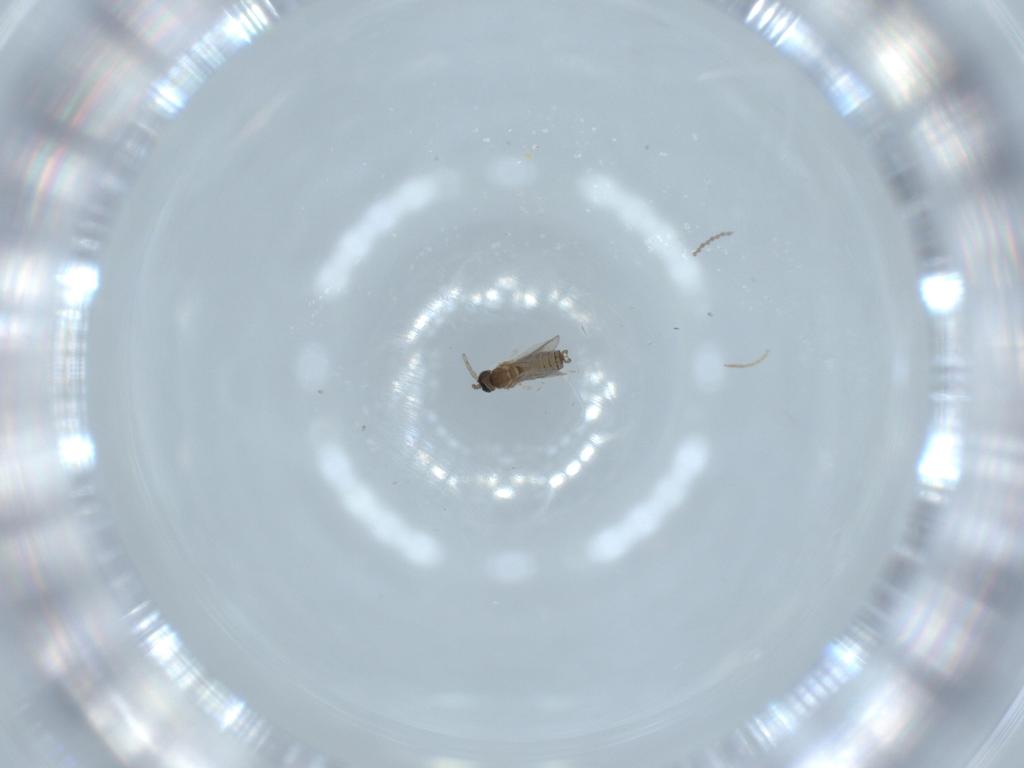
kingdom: Animalia
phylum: Arthropoda
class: Insecta
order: Diptera
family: Cecidomyiidae
